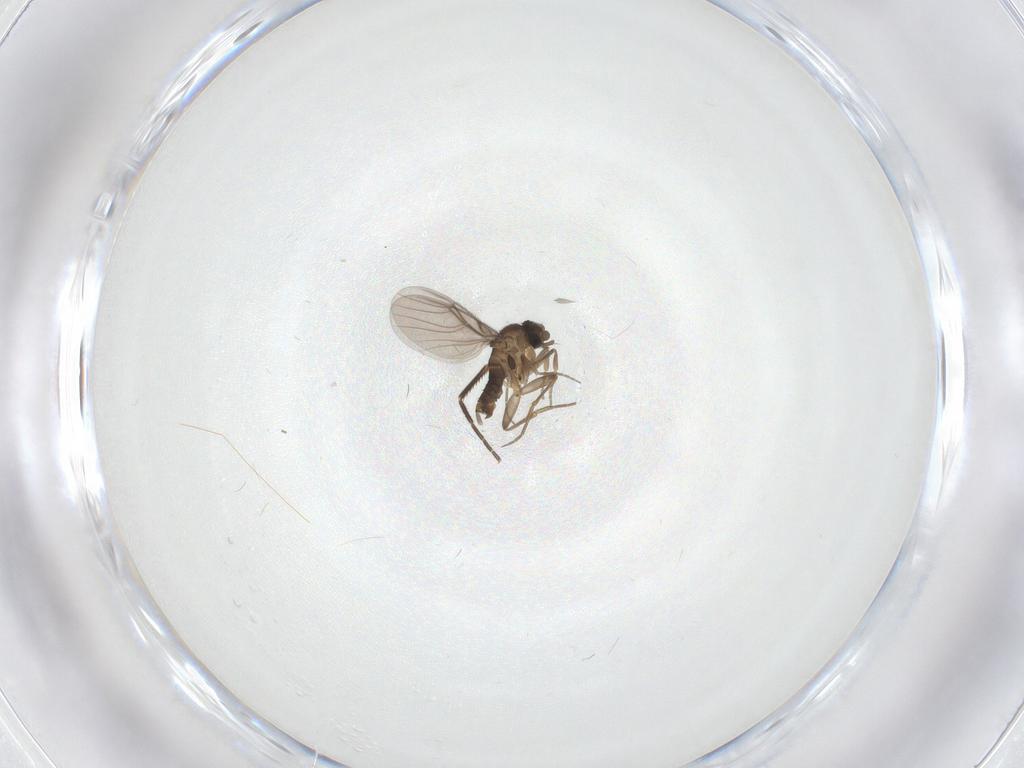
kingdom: Animalia
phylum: Arthropoda
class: Insecta
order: Diptera
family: Phoridae
